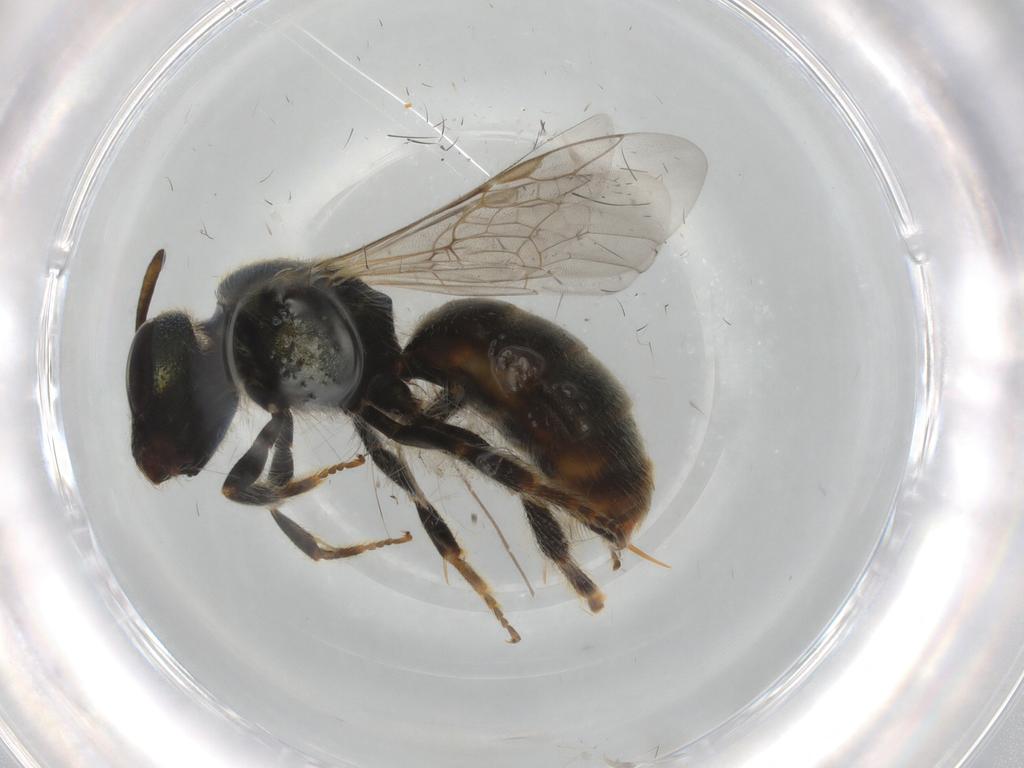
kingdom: Animalia
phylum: Arthropoda
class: Insecta
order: Hymenoptera
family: Halictidae
